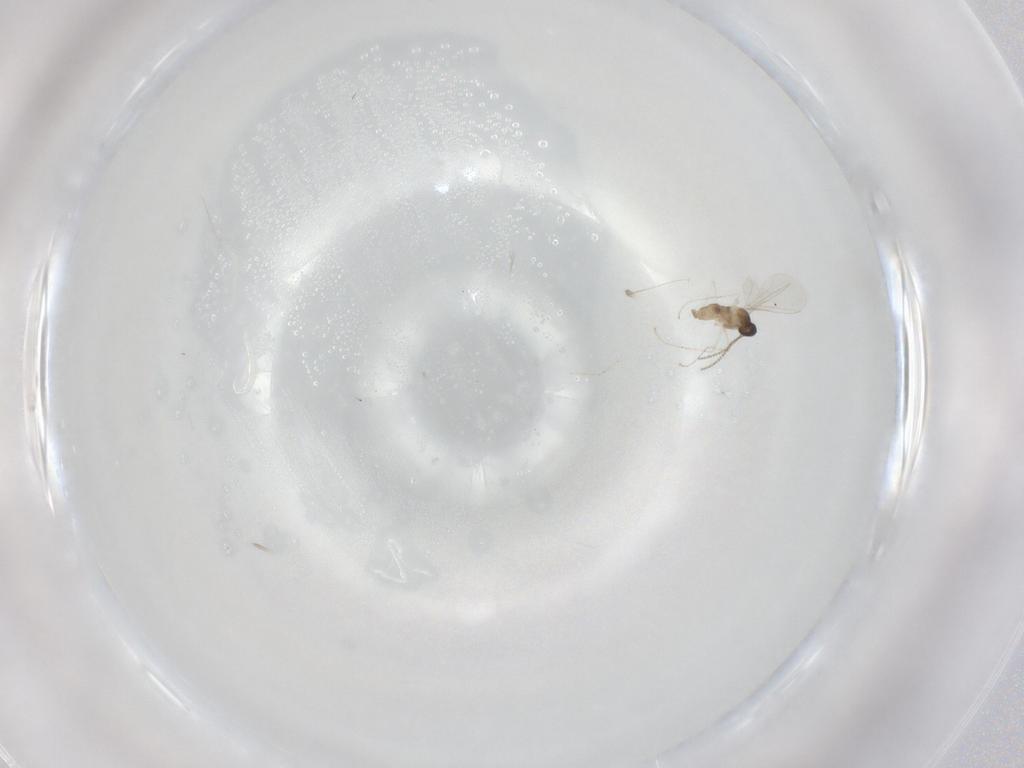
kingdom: Animalia
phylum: Arthropoda
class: Insecta
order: Diptera
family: Cecidomyiidae
